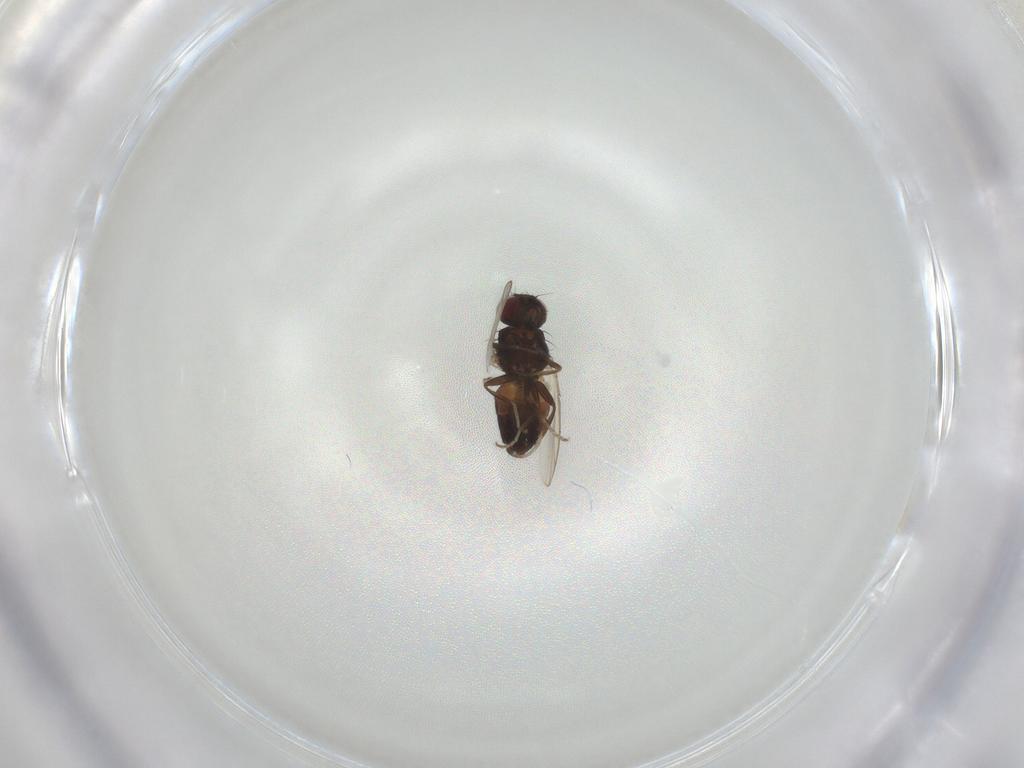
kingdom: Animalia
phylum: Arthropoda
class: Insecta
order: Diptera
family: Carnidae
